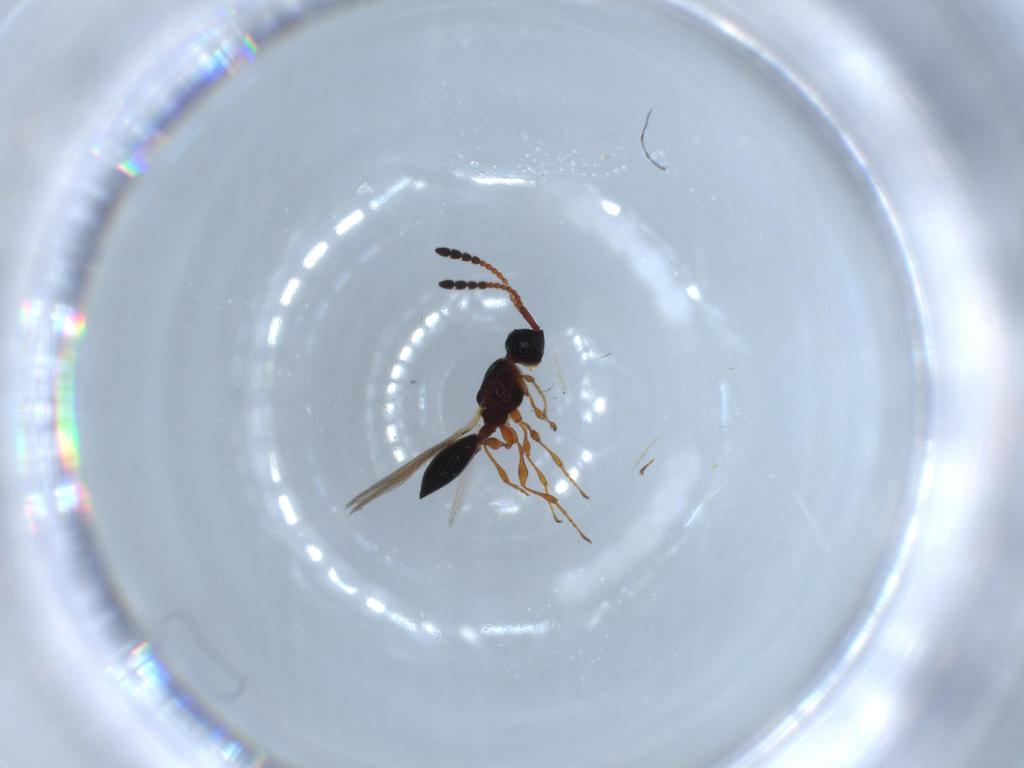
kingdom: Animalia
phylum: Arthropoda
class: Insecta
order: Hymenoptera
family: Diapriidae
